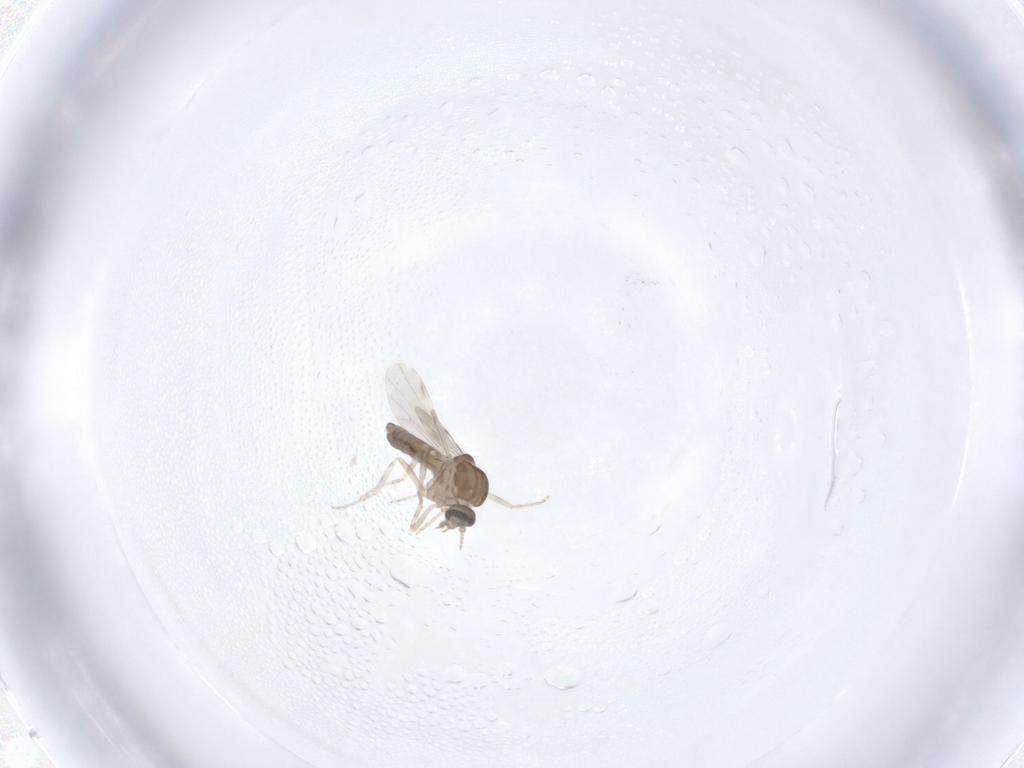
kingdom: Animalia
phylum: Arthropoda
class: Insecta
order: Diptera
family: Ceratopogonidae
